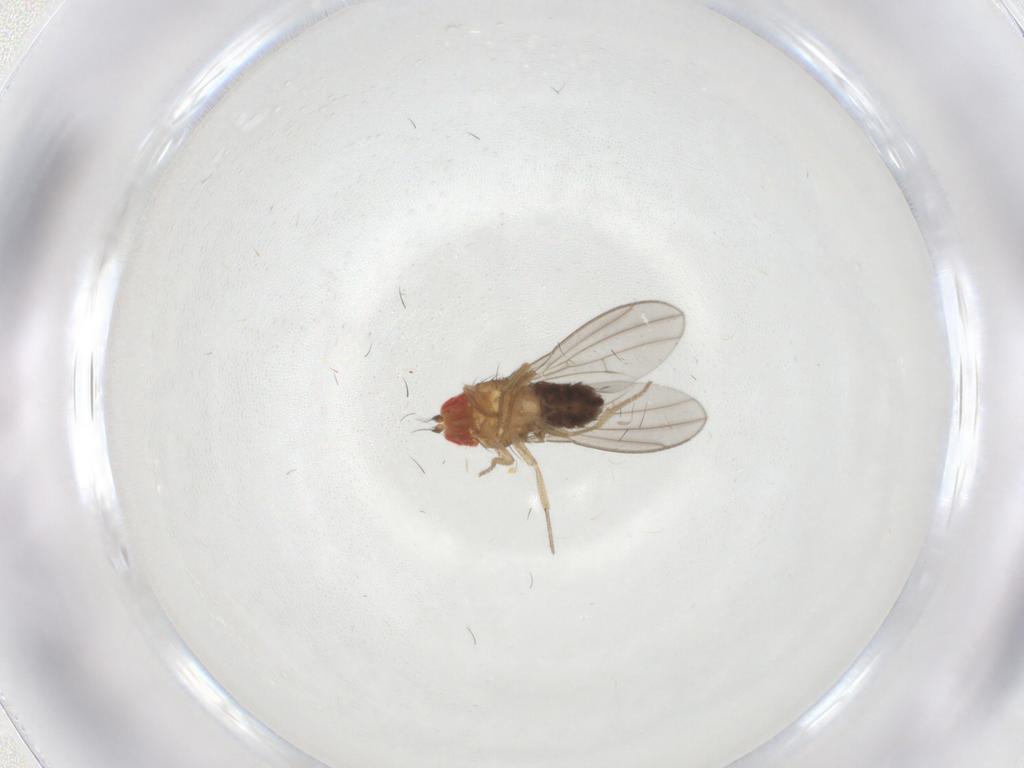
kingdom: Animalia
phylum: Arthropoda
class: Insecta
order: Diptera
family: Drosophilidae
